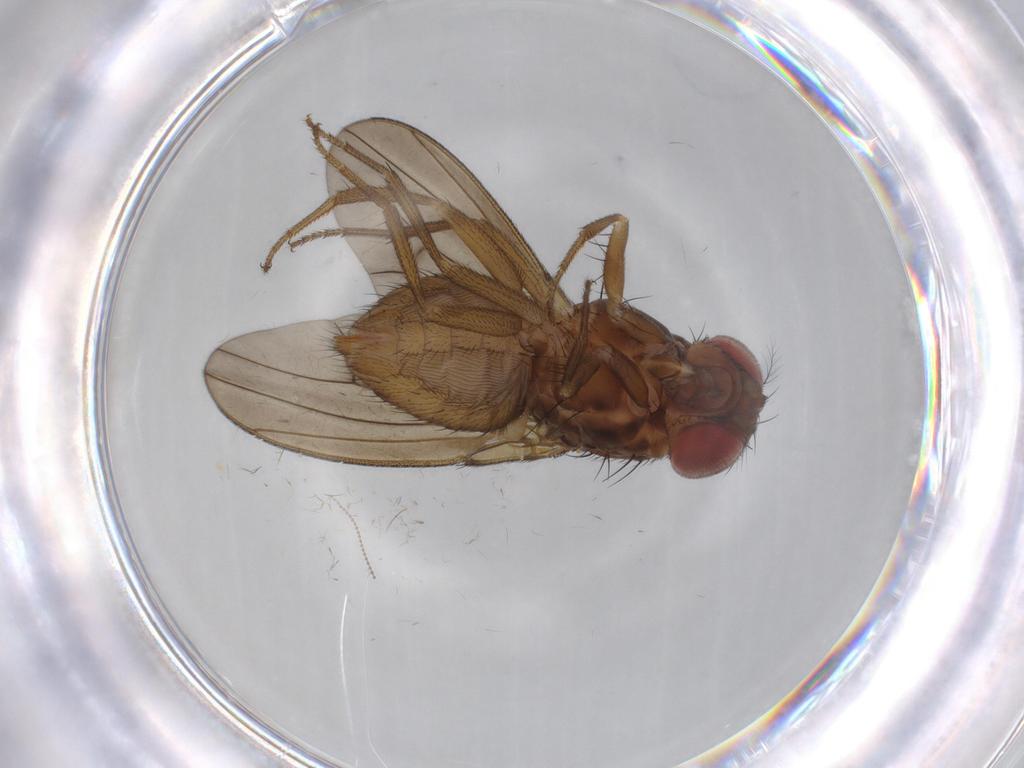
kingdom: Animalia
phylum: Arthropoda
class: Insecta
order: Diptera
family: Drosophilidae
